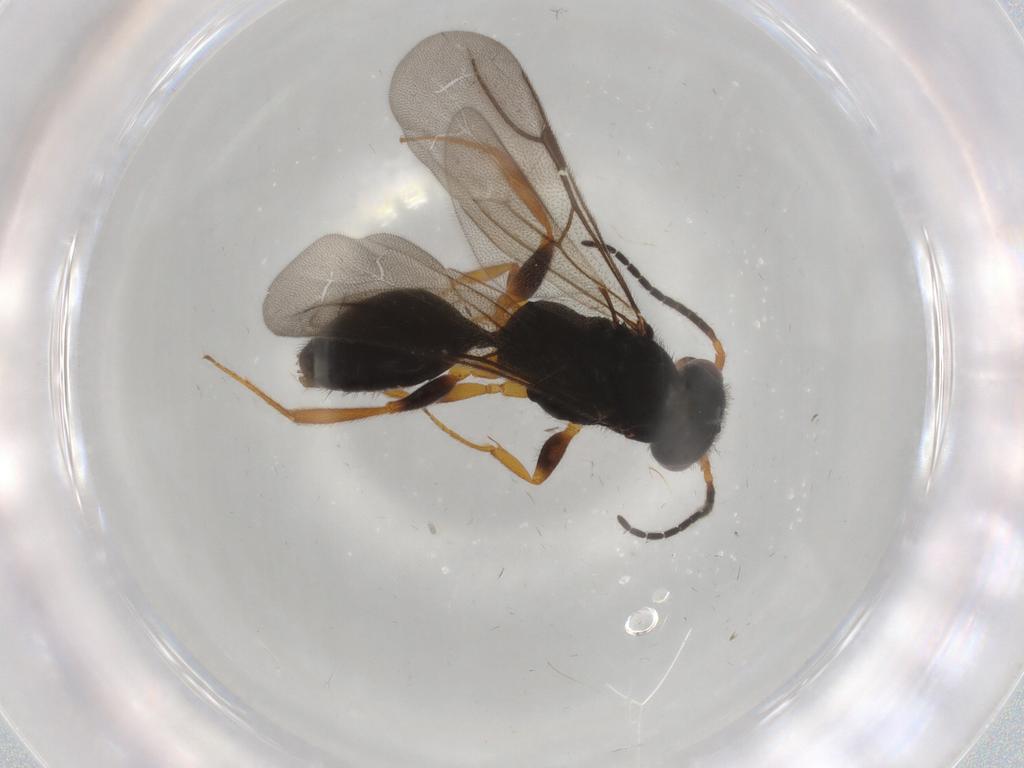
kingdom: Animalia
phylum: Arthropoda
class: Insecta
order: Hymenoptera
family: Bethylidae
